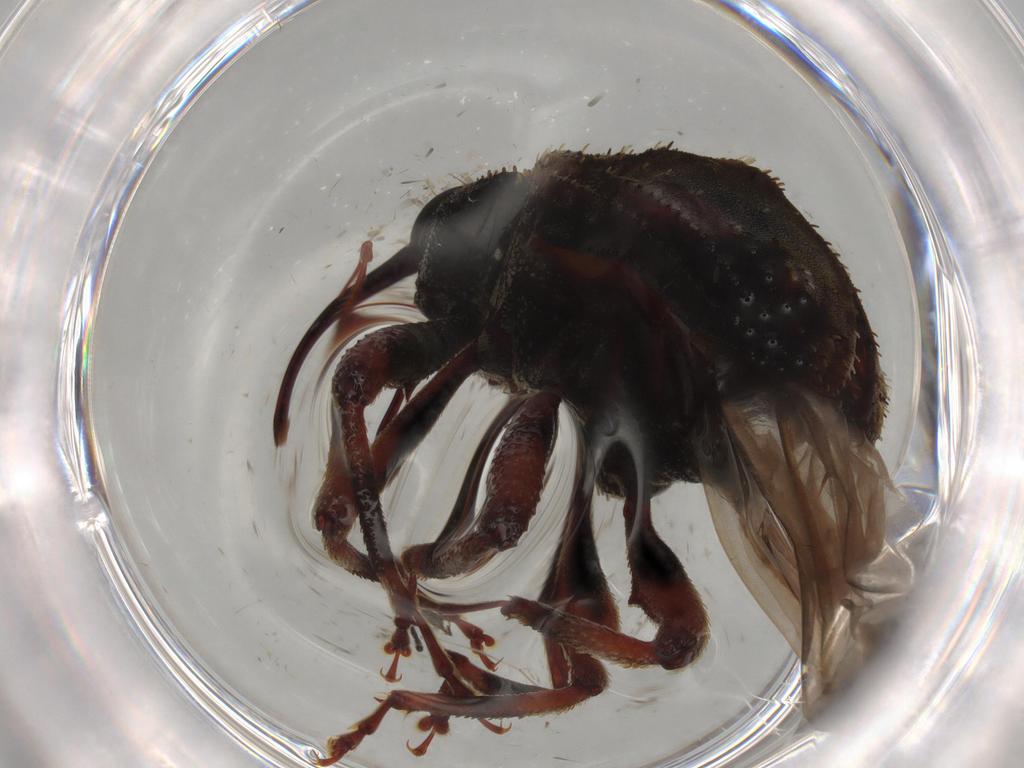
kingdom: Animalia
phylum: Arthropoda
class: Insecta
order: Coleoptera
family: Curculionidae
